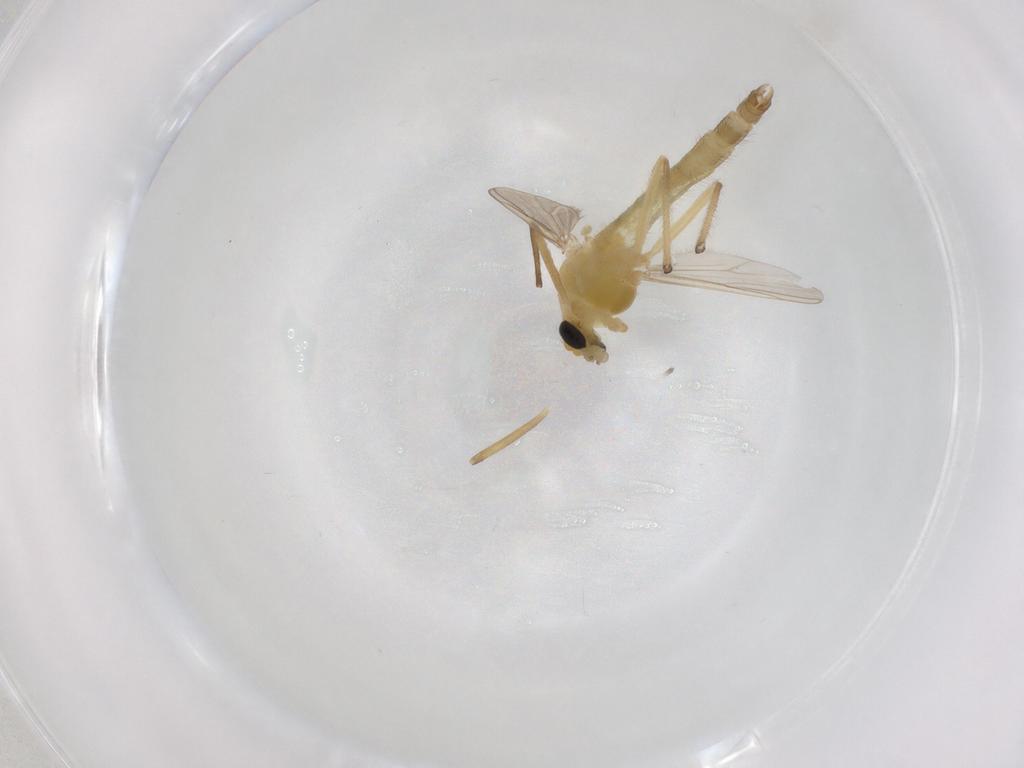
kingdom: Animalia
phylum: Arthropoda
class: Insecta
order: Diptera
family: Chironomidae
